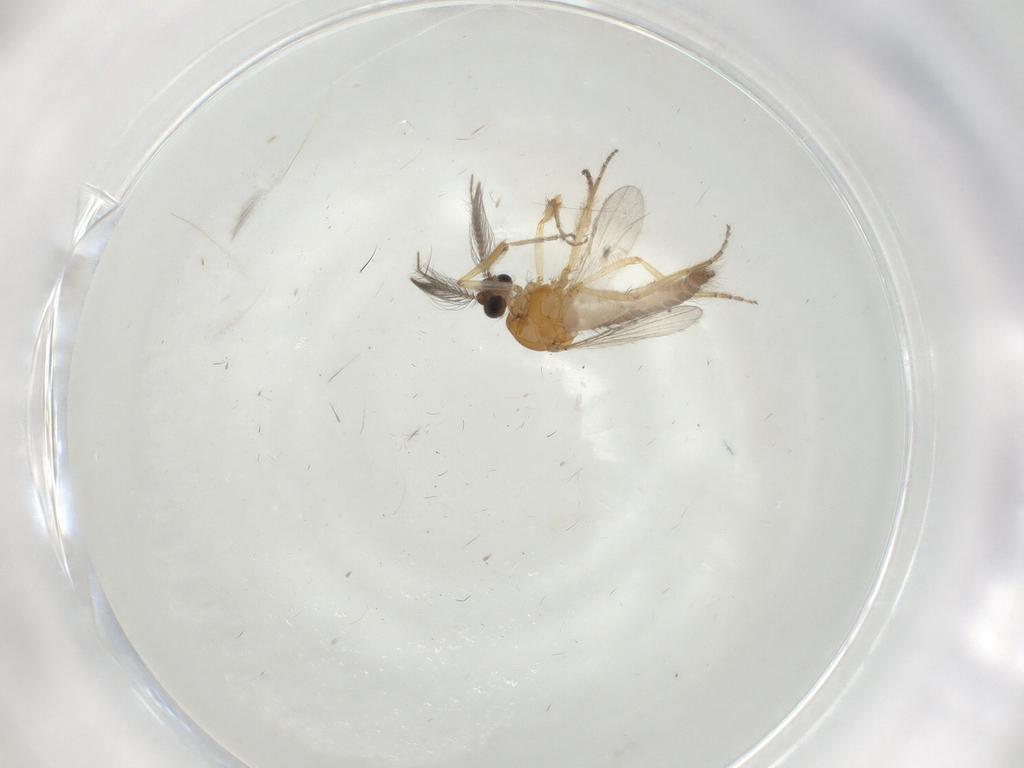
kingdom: Animalia
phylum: Arthropoda
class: Insecta
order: Diptera
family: Ceratopogonidae
